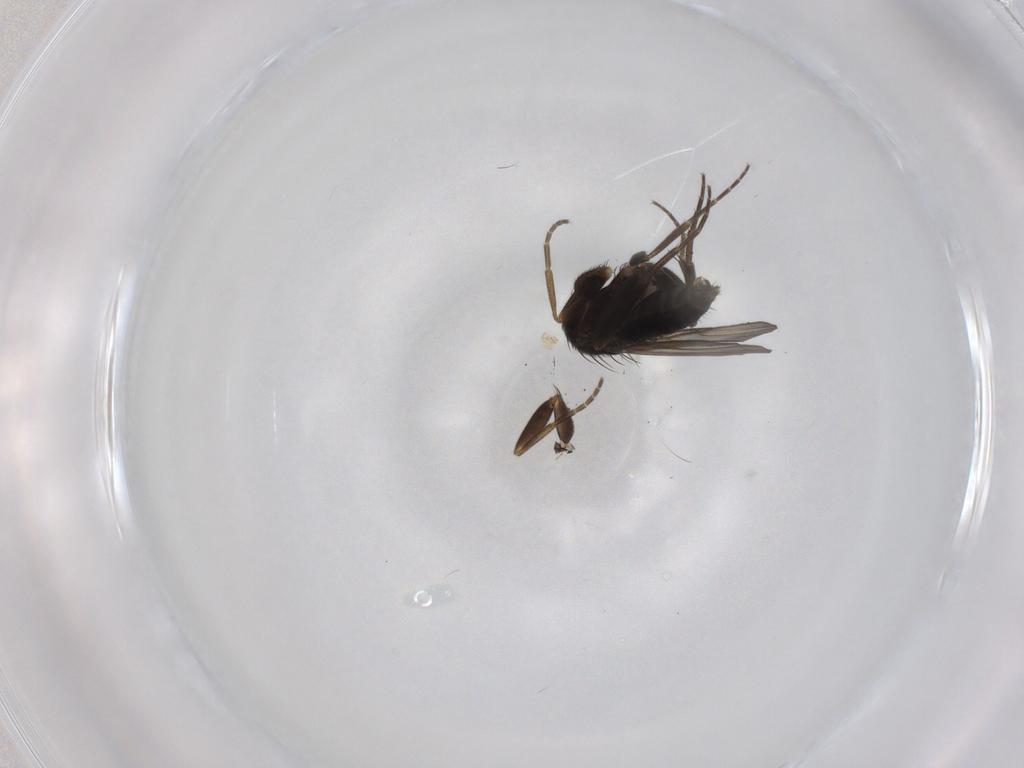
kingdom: Animalia
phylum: Arthropoda
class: Insecta
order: Diptera
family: Phoridae
